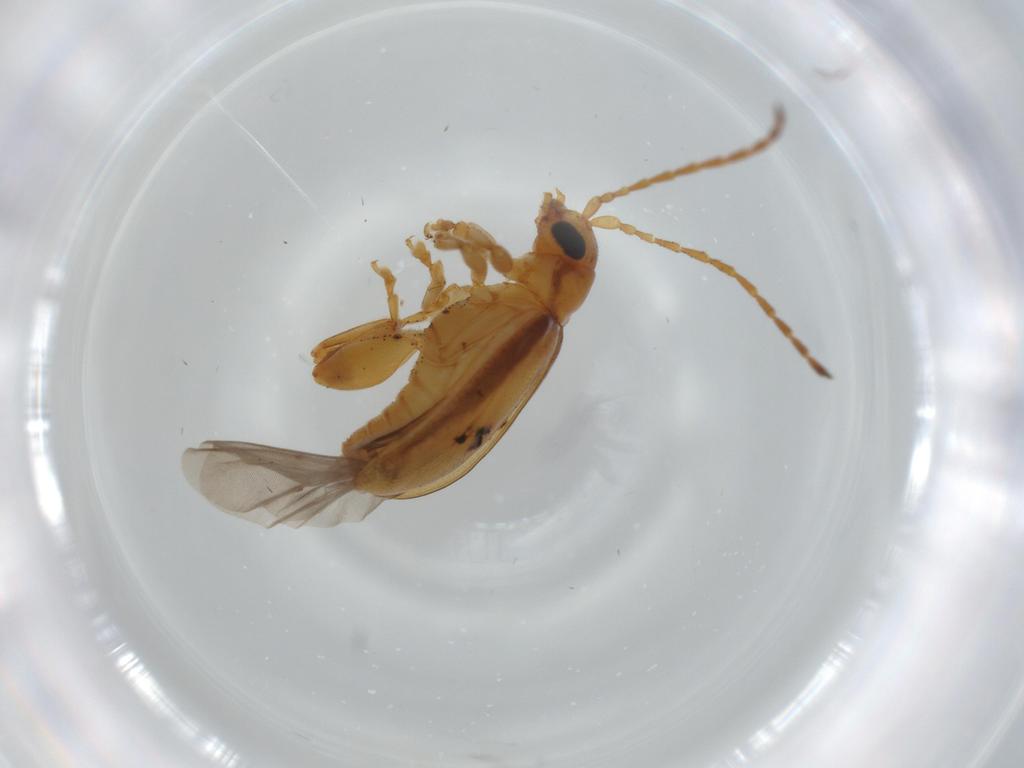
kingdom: Animalia
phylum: Arthropoda
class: Insecta
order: Coleoptera
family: Chrysomelidae
